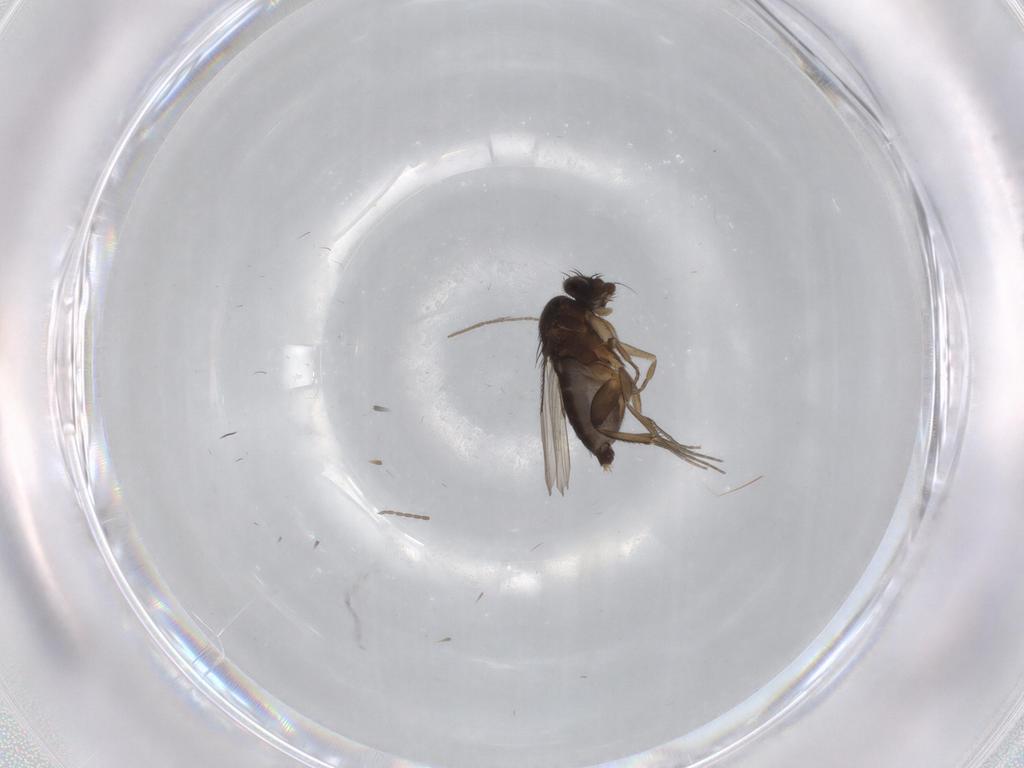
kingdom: Animalia
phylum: Arthropoda
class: Insecta
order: Diptera
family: Phoridae
